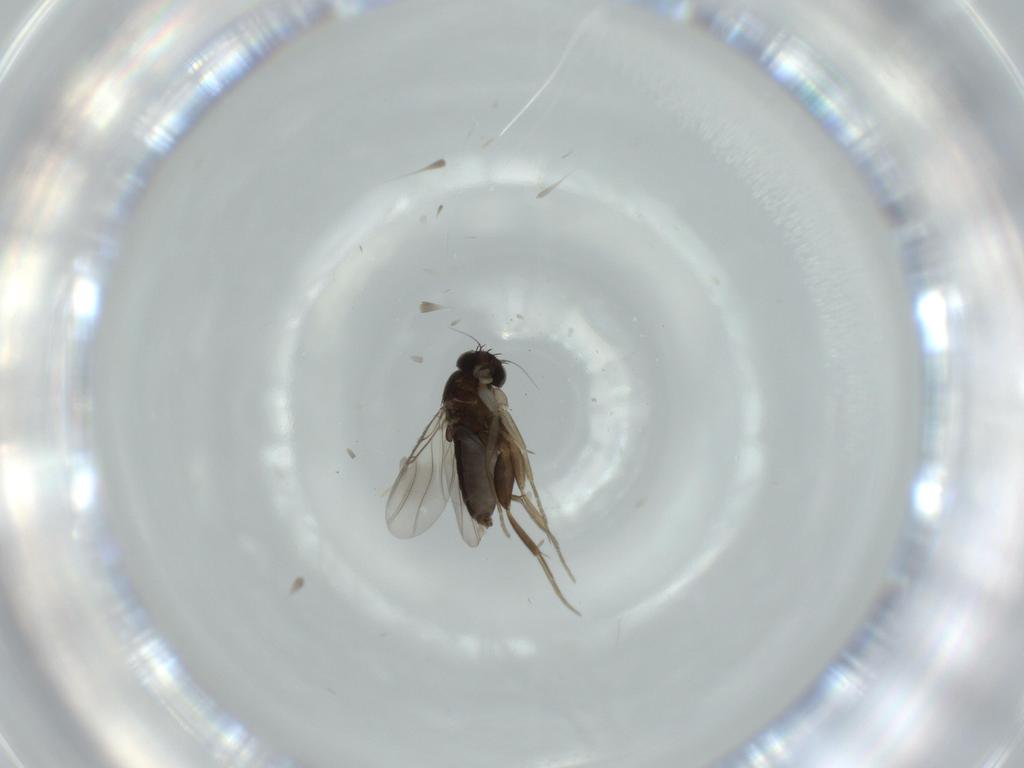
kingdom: Animalia
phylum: Arthropoda
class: Insecta
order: Diptera
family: Phoridae
